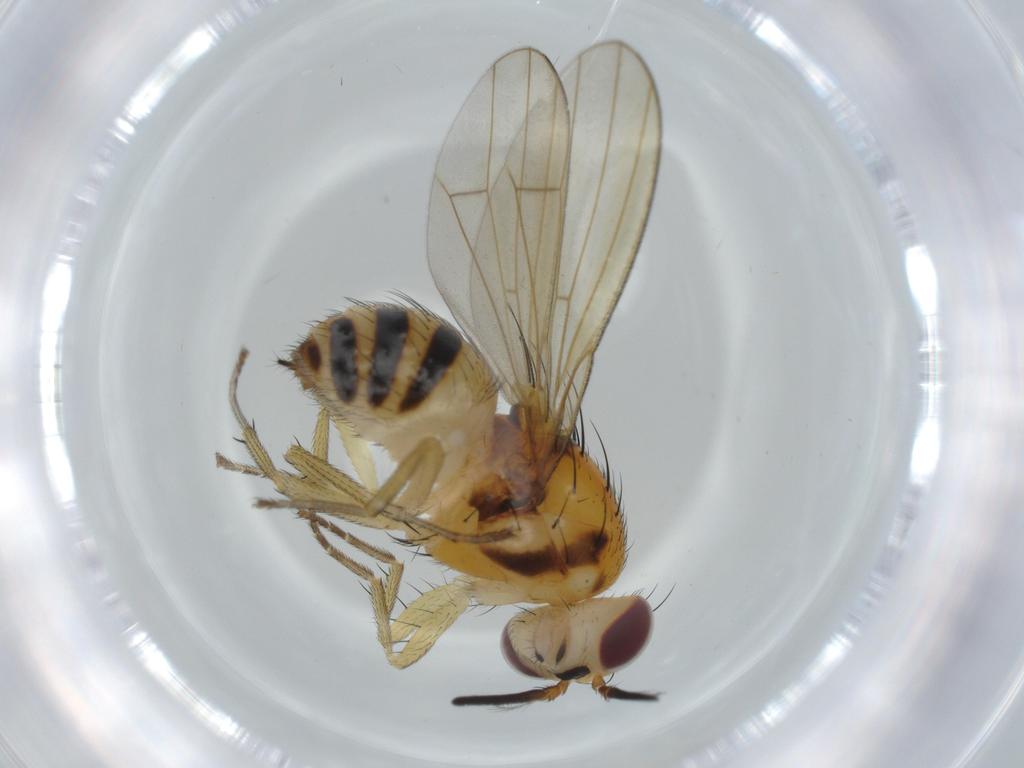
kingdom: Animalia
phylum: Arthropoda
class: Insecta
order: Diptera
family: Lauxaniidae
